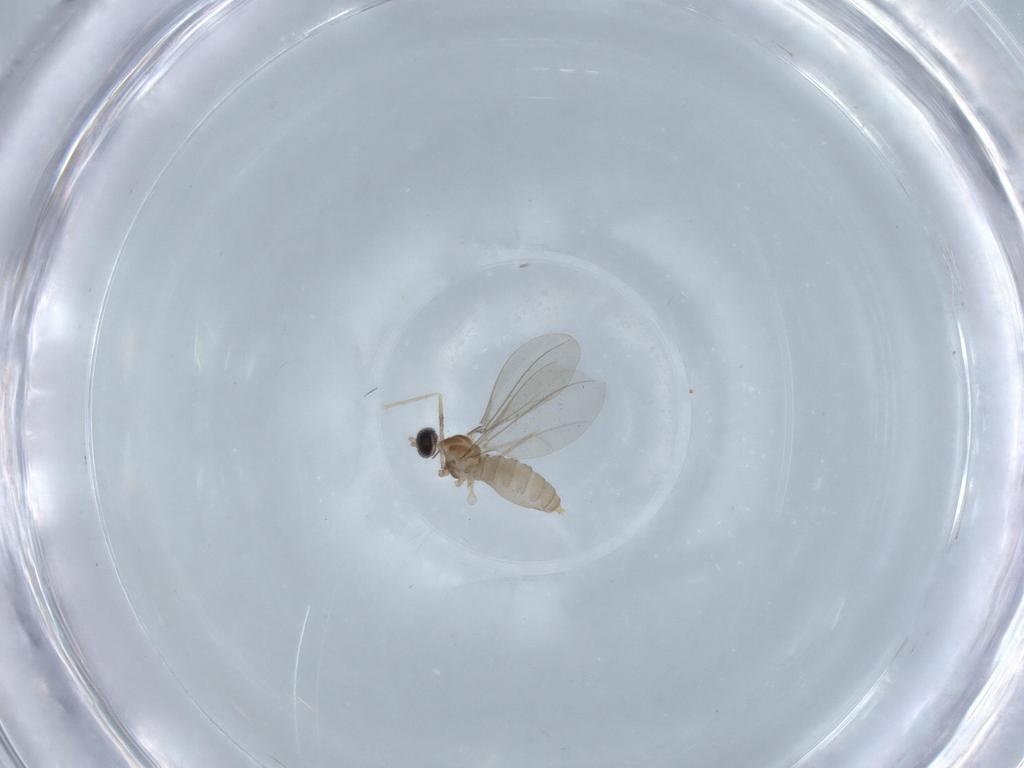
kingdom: Animalia
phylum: Arthropoda
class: Insecta
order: Diptera
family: Cecidomyiidae
